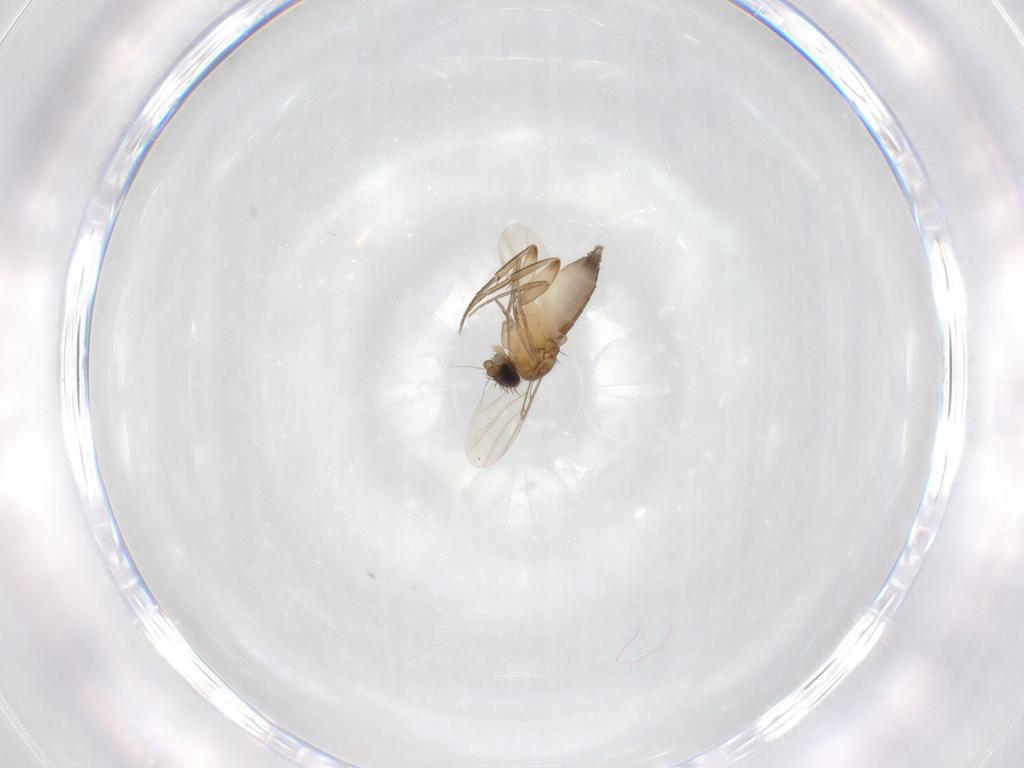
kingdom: Animalia
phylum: Arthropoda
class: Insecta
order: Diptera
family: Phoridae
